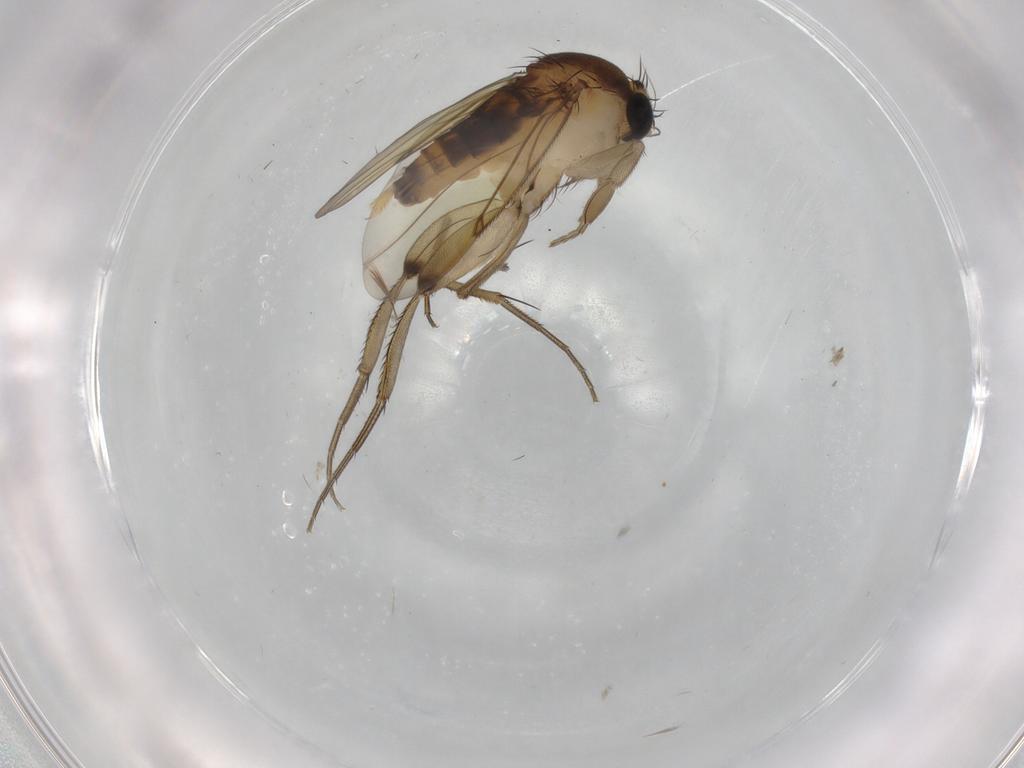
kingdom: Animalia
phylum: Arthropoda
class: Insecta
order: Diptera
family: Phoridae
